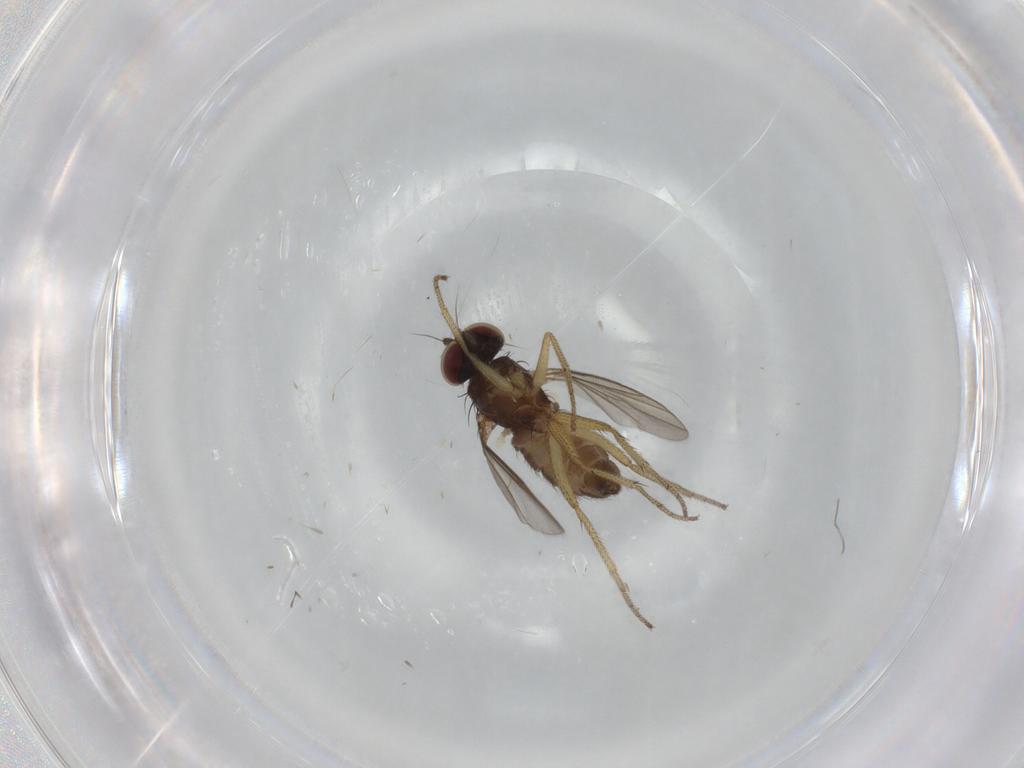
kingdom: Animalia
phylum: Arthropoda
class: Insecta
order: Diptera
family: Dolichopodidae
